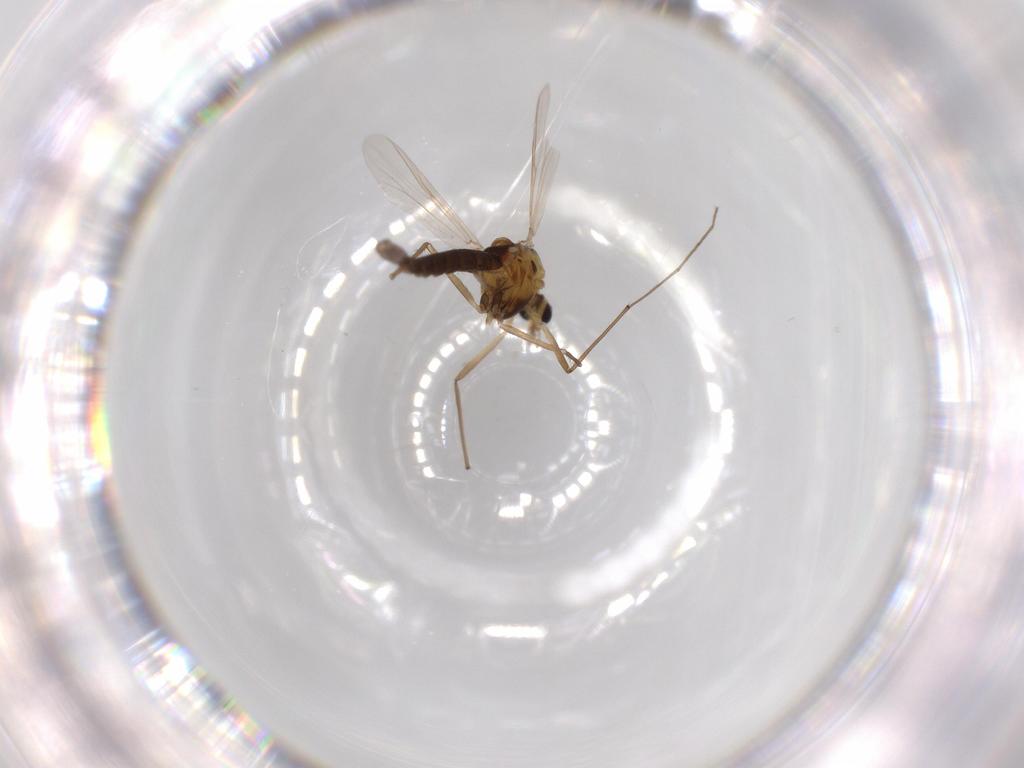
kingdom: Animalia
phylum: Arthropoda
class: Insecta
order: Diptera
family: Chironomidae
